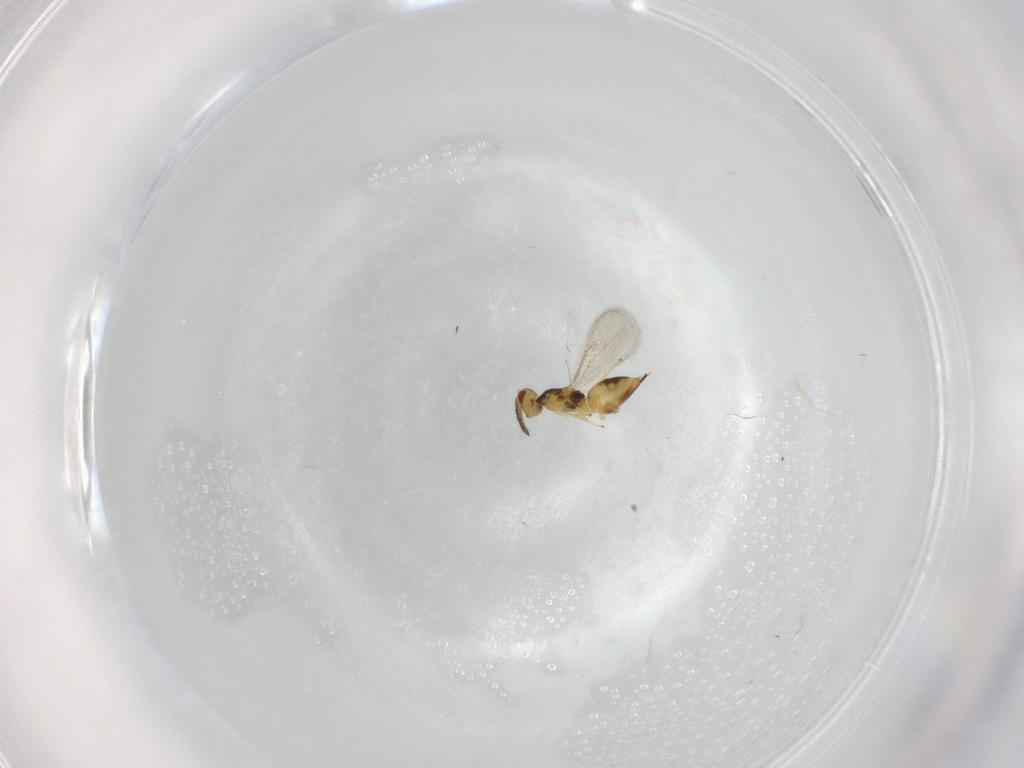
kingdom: Animalia
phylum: Arthropoda
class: Insecta
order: Hymenoptera
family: Eulophidae
